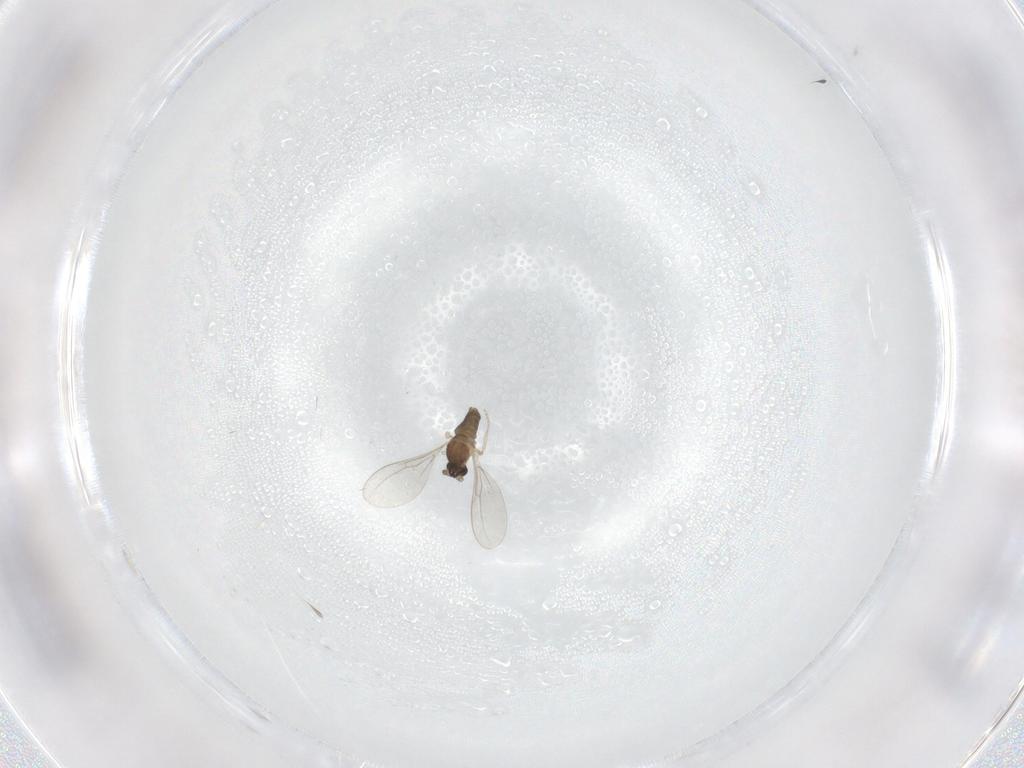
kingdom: Animalia
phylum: Arthropoda
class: Insecta
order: Diptera
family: Cecidomyiidae
